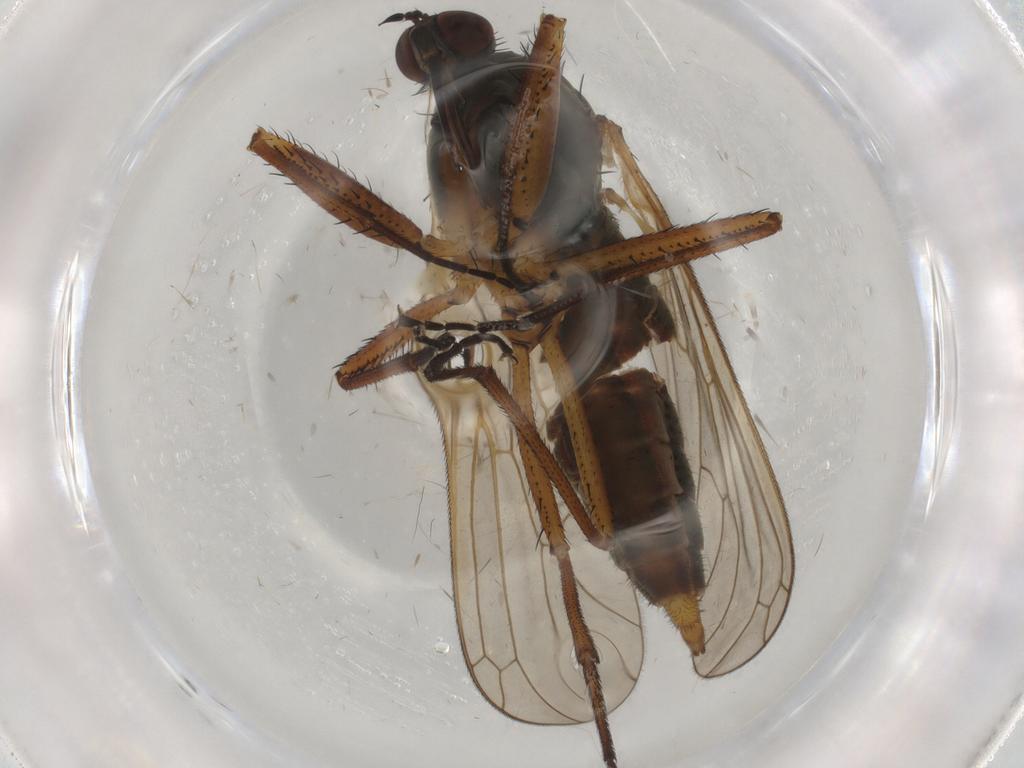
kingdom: Animalia
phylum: Arthropoda
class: Insecta
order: Diptera
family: Empididae
